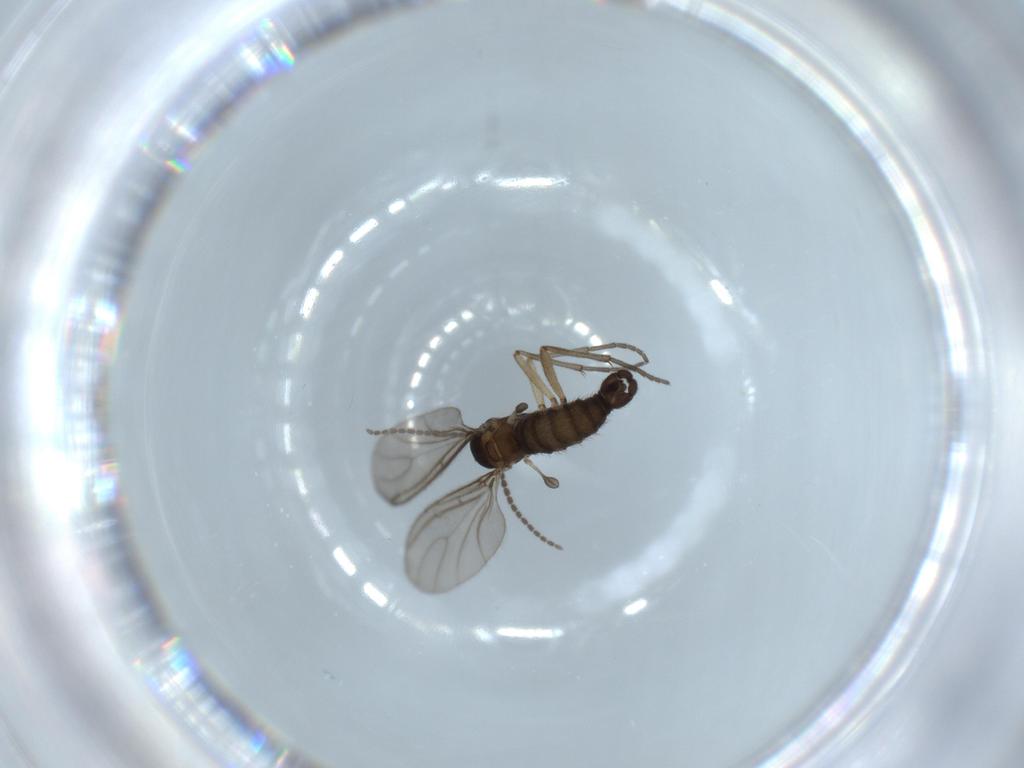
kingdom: Animalia
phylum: Arthropoda
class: Insecta
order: Diptera
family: Sciaridae
